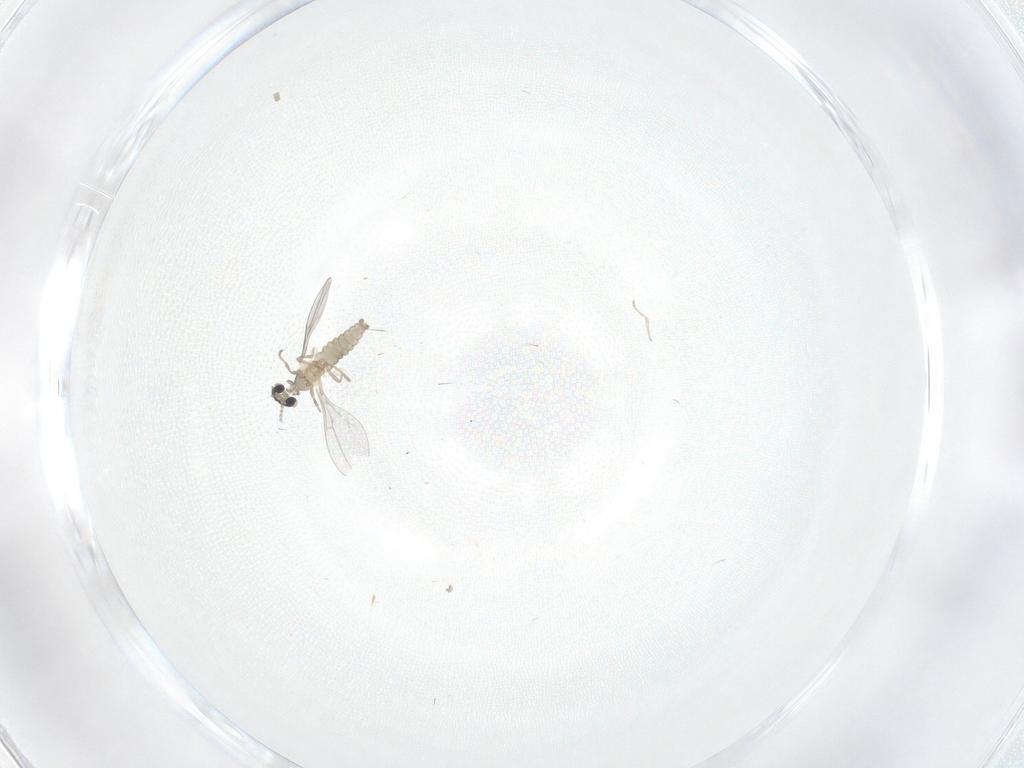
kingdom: Animalia
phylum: Arthropoda
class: Insecta
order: Diptera
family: Cecidomyiidae
